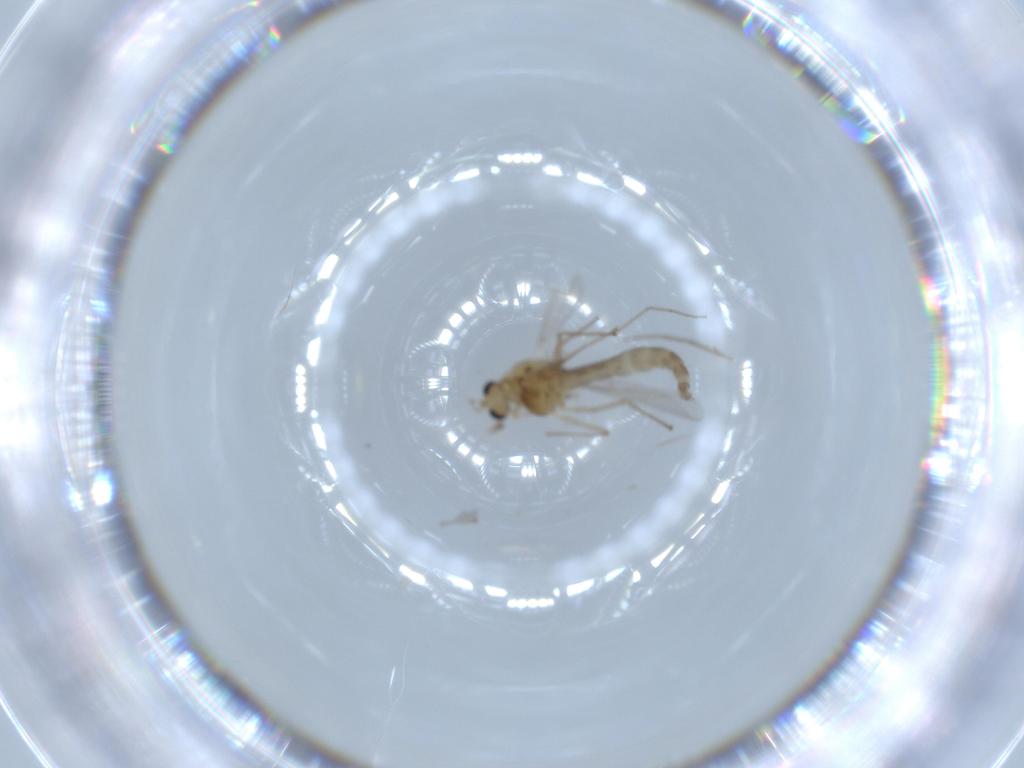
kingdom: Animalia
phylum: Arthropoda
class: Insecta
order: Diptera
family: Chironomidae
